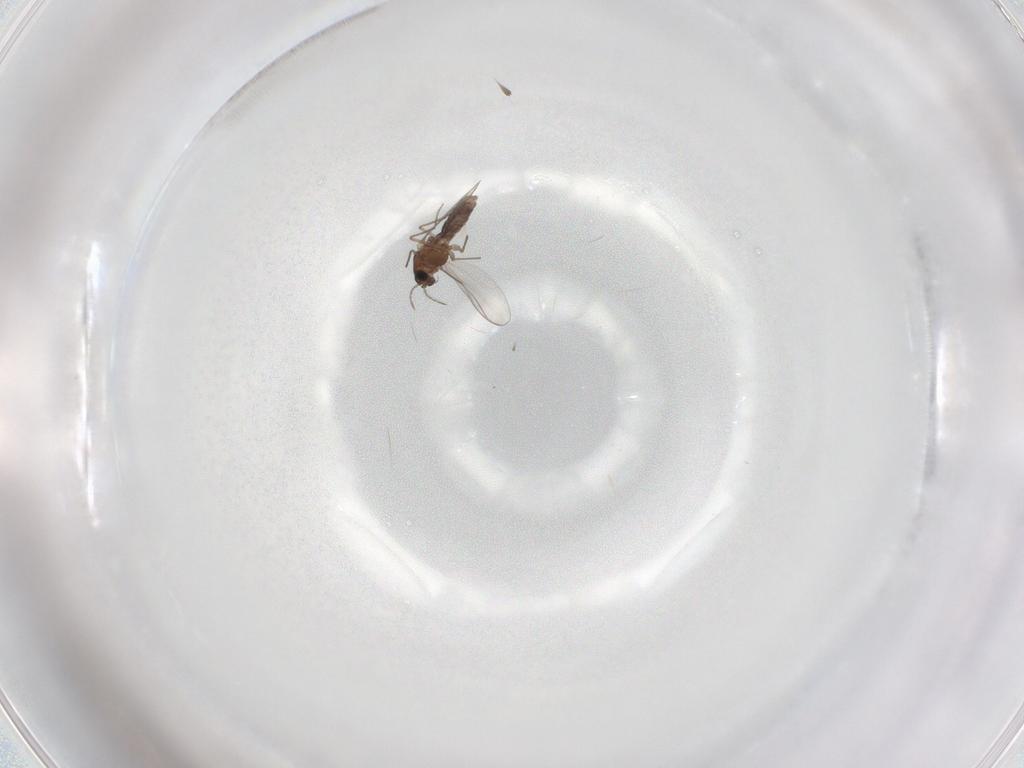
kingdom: Animalia
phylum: Arthropoda
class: Insecta
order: Diptera
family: Chironomidae
